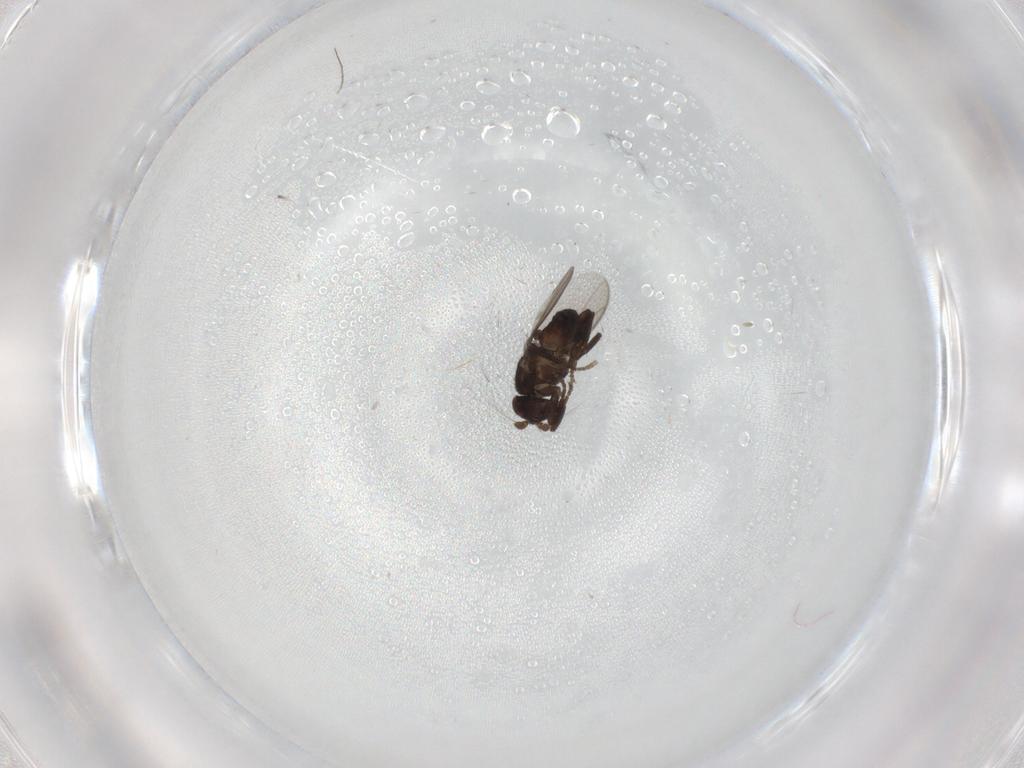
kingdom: Animalia
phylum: Arthropoda
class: Insecta
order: Diptera
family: Sphaeroceridae
